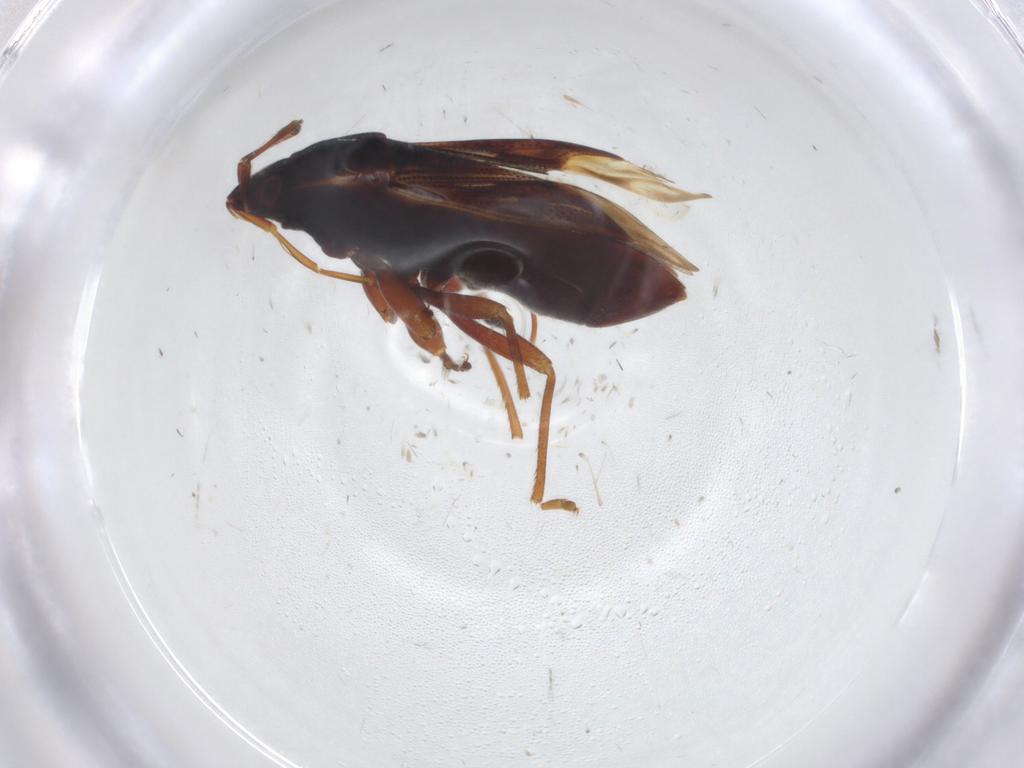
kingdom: Animalia
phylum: Arthropoda
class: Insecta
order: Hemiptera
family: Rhyparochromidae
